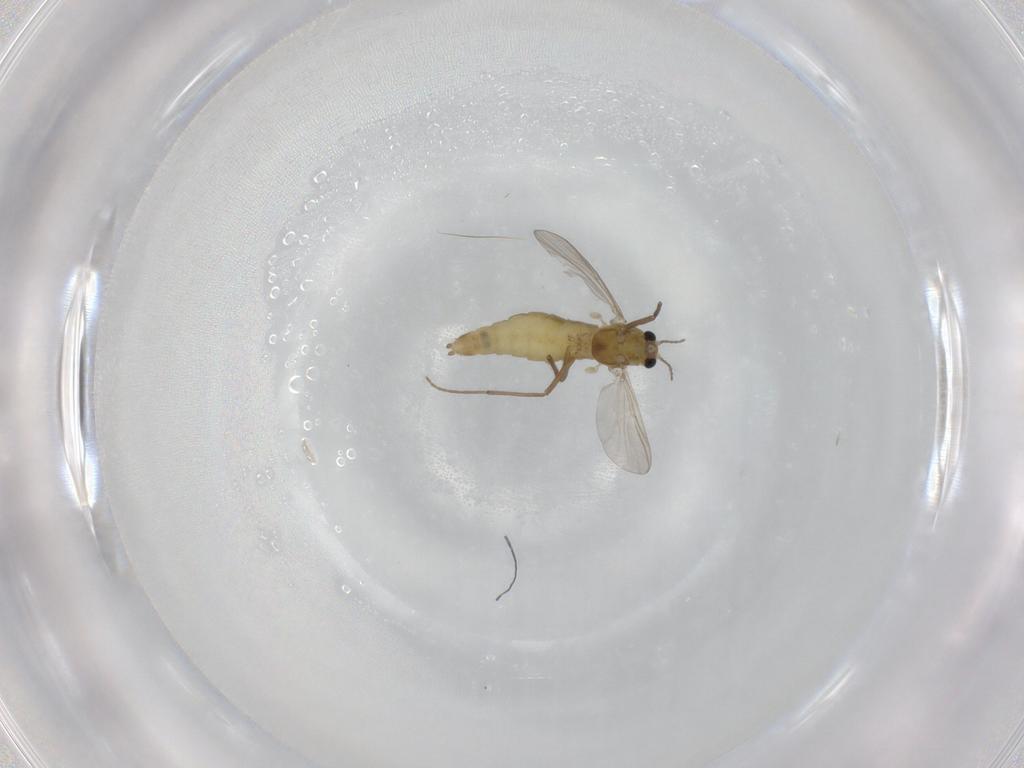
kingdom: Animalia
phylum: Arthropoda
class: Insecta
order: Diptera
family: Chironomidae
